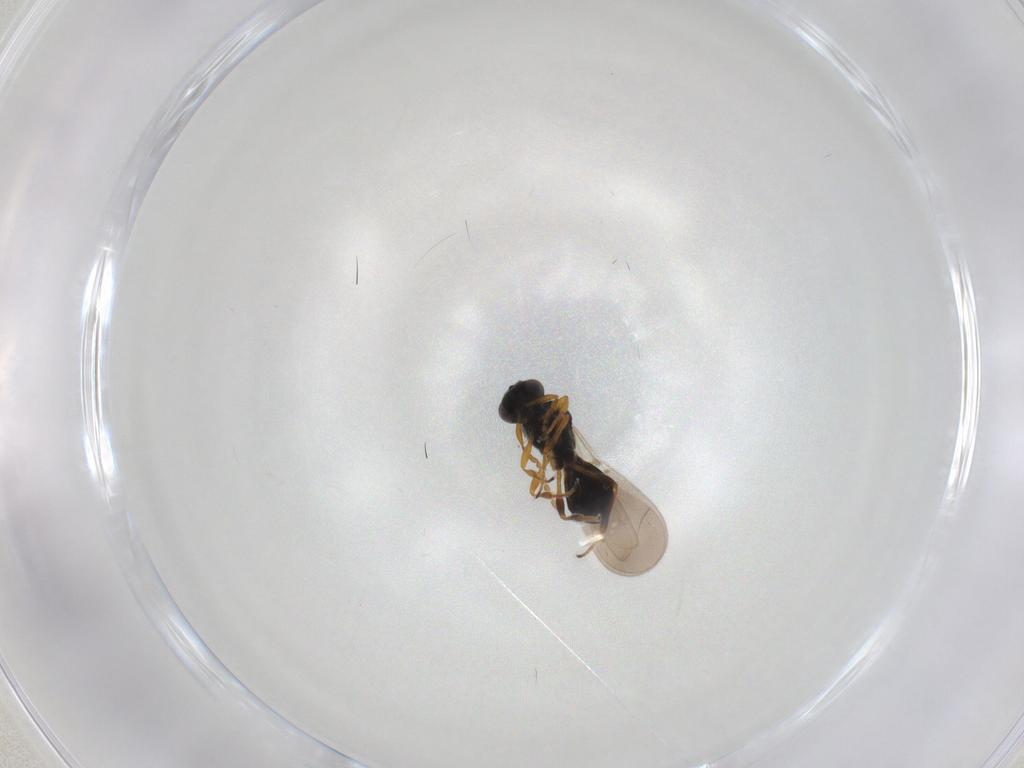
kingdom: Animalia
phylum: Arthropoda
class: Insecta
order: Hymenoptera
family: Platygastridae
